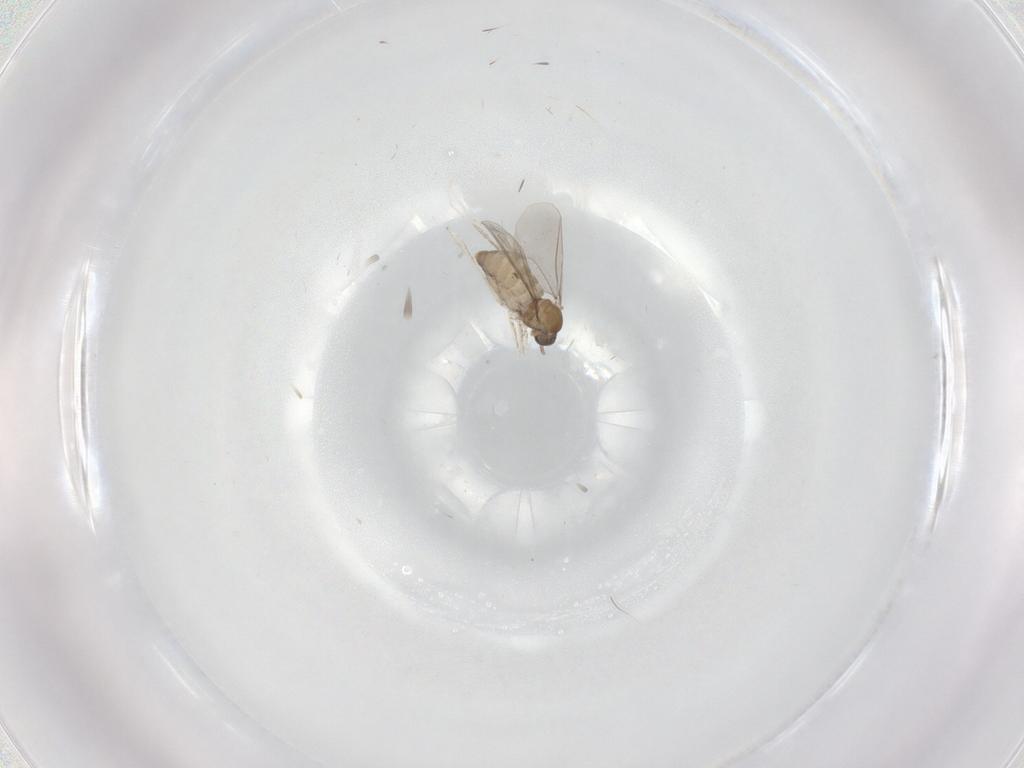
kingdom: Animalia
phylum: Arthropoda
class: Insecta
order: Diptera
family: Cecidomyiidae
